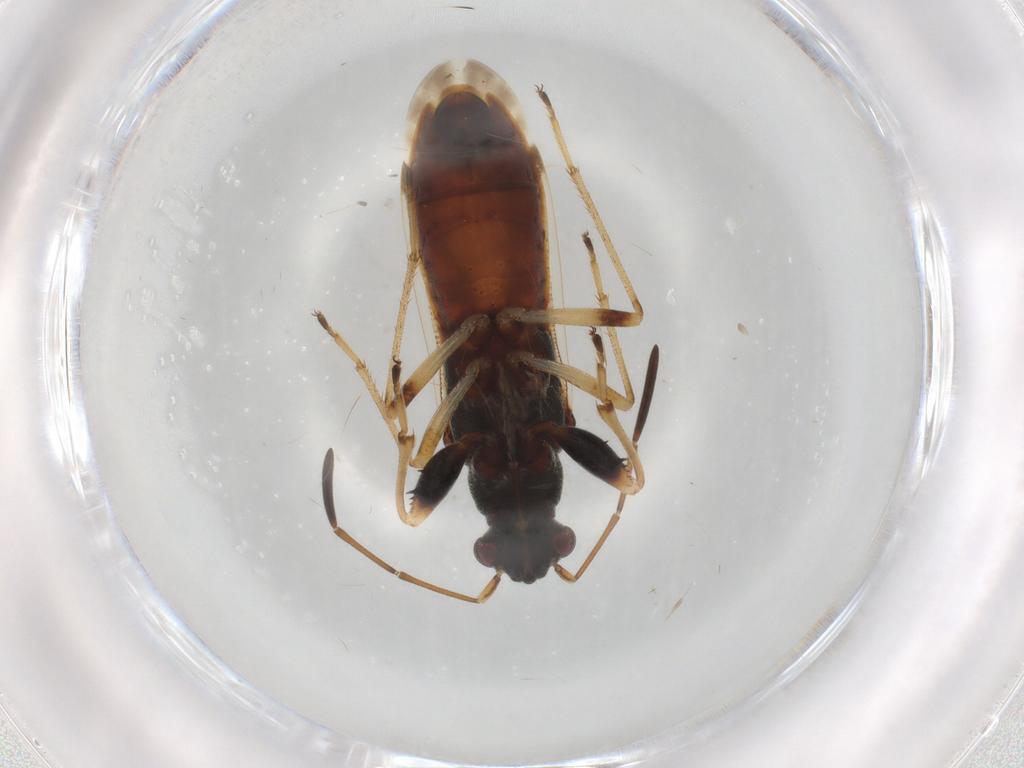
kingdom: Animalia
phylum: Arthropoda
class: Insecta
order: Hemiptera
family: Rhyparochromidae
